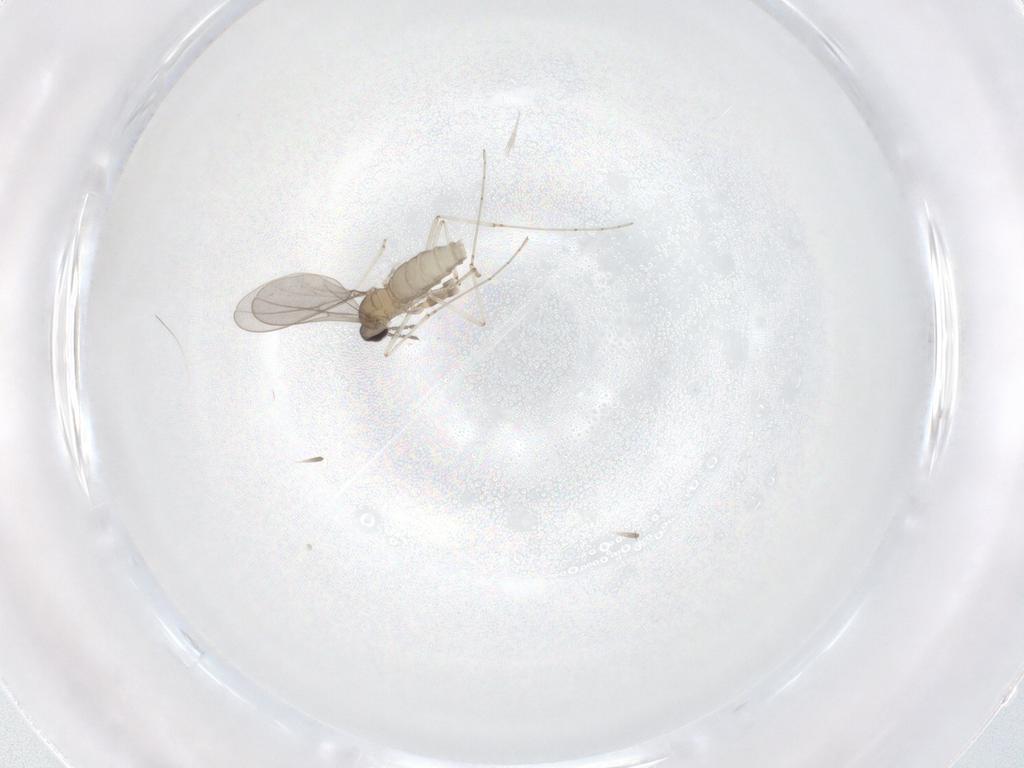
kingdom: Animalia
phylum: Arthropoda
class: Insecta
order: Diptera
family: Cecidomyiidae
